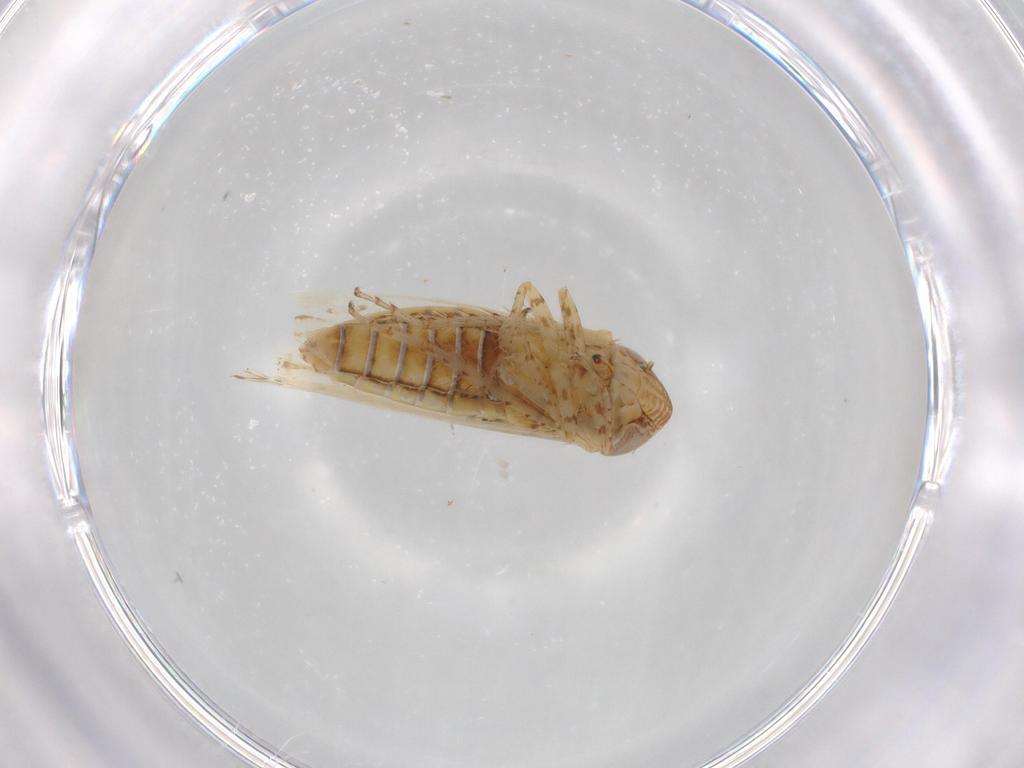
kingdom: Animalia
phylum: Arthropoda
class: Insecta
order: Hemiptera
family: Cicadellidae
